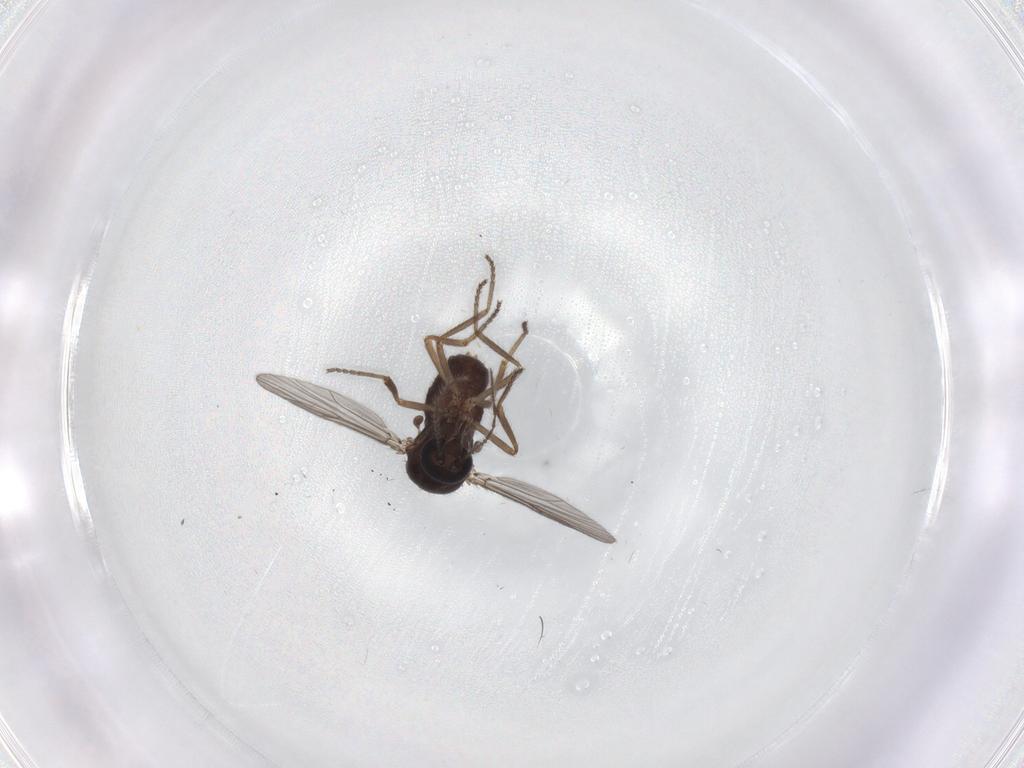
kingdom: Animalia
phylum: Arthropoda
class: Insecta
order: Diptera
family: Ceratopogonidae
